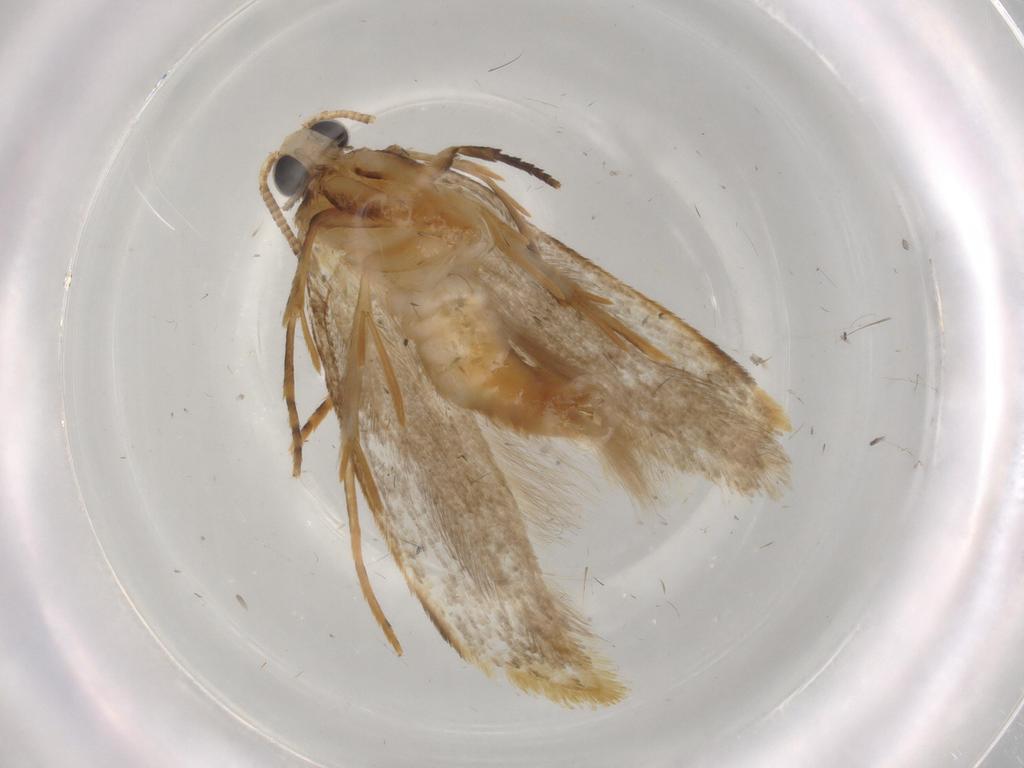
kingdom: Animalia
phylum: Arthropoda
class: Insecta
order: Lepidoptera
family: Tineidae
